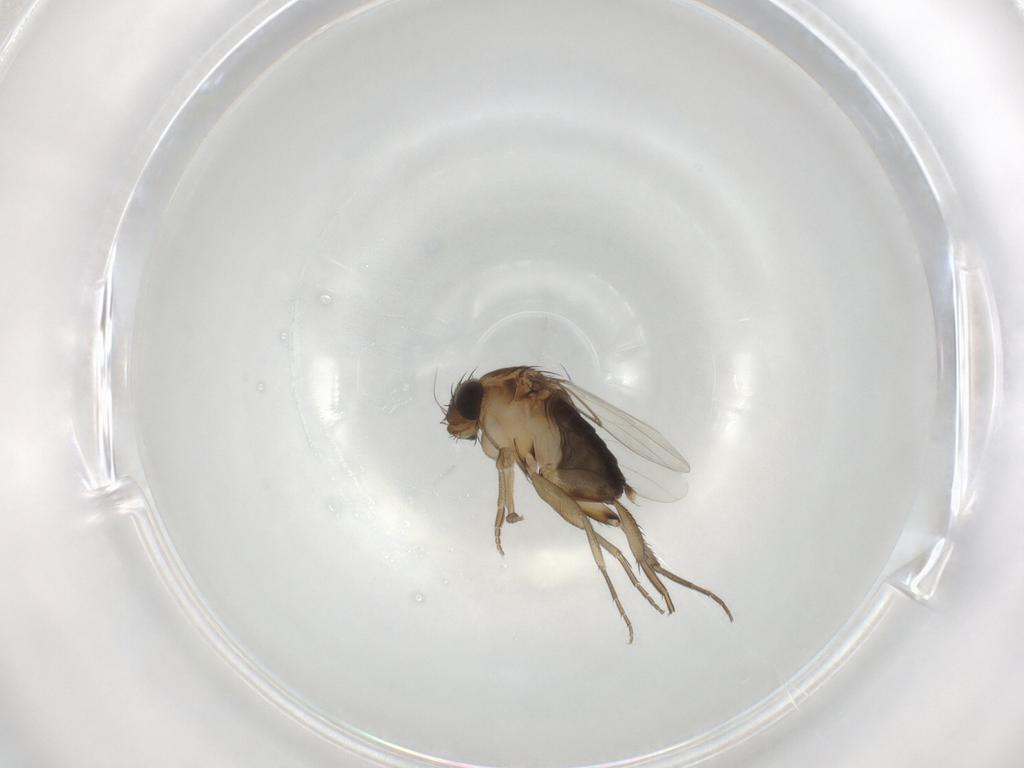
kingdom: Animalia
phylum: Arthropoda
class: Insecta
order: Diptera
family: Phoridae
